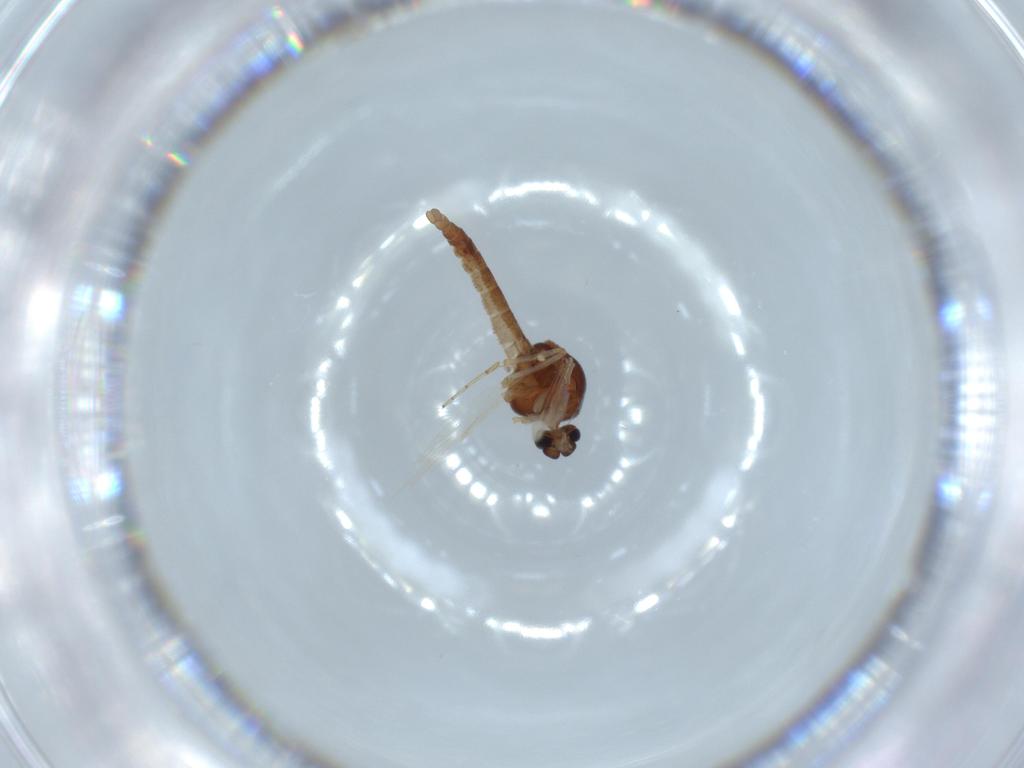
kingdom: Animalia
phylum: Arthropoda
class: Insecta
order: Diptera
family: Ceratopogonidae
